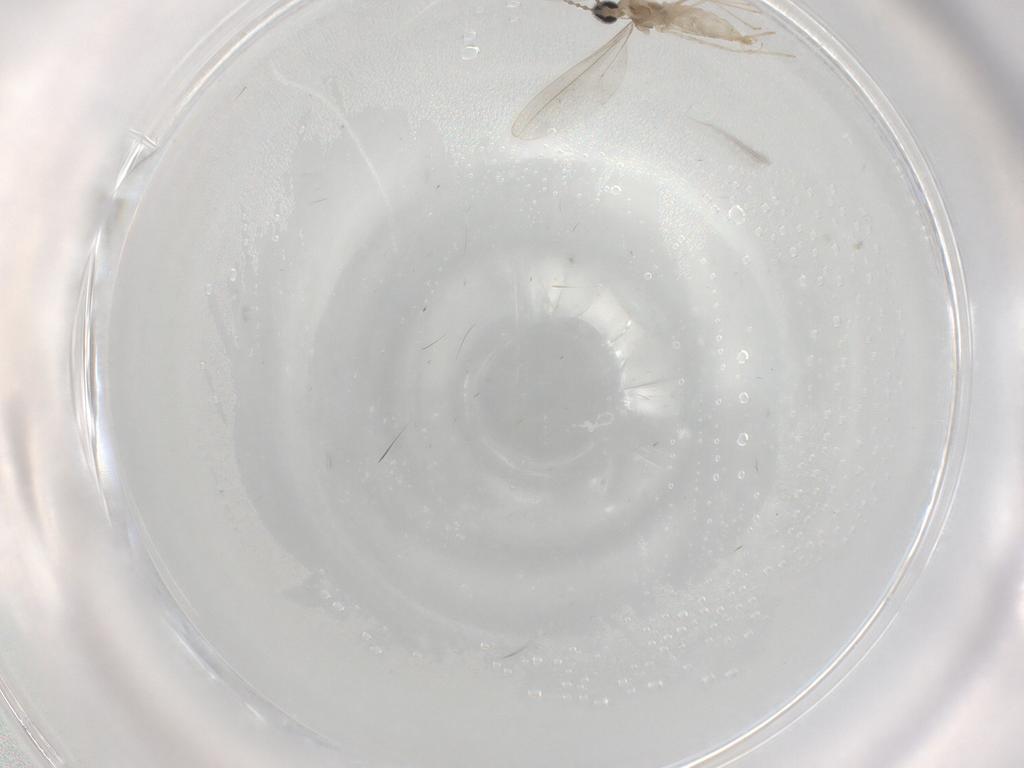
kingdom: Animalia
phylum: Arthropoda
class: Insecta
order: Diptera
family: Cecidomyiidae
